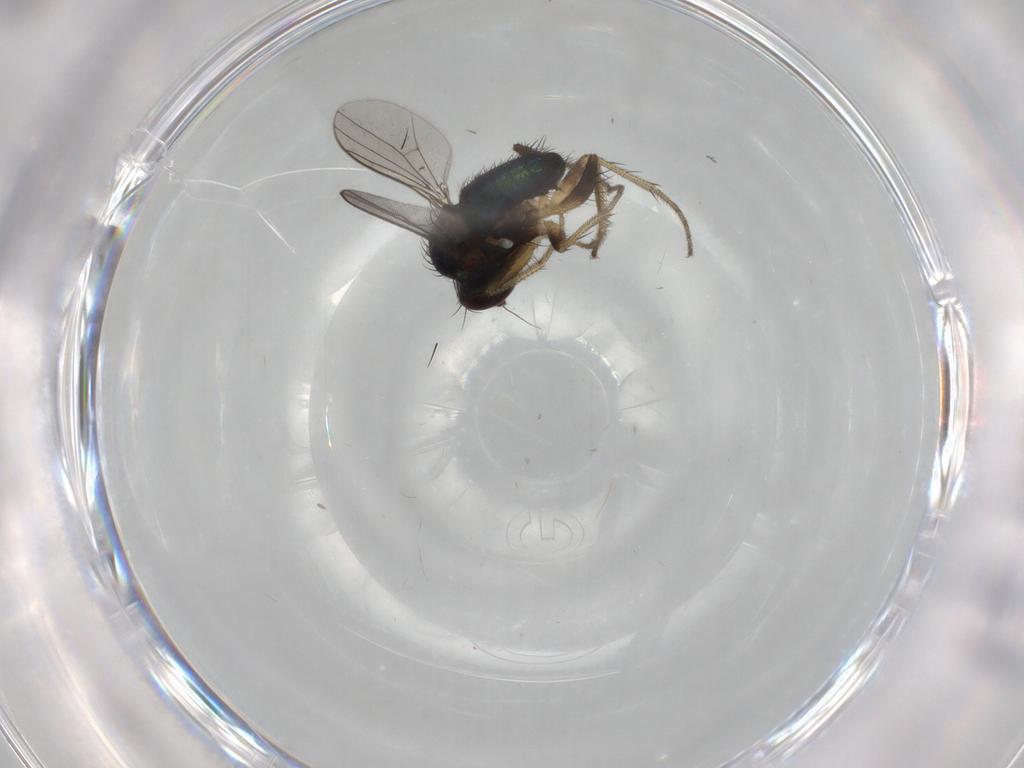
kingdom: Animalia
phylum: Arthropoda
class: Insecta
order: Diptera
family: Dolichopodidae
